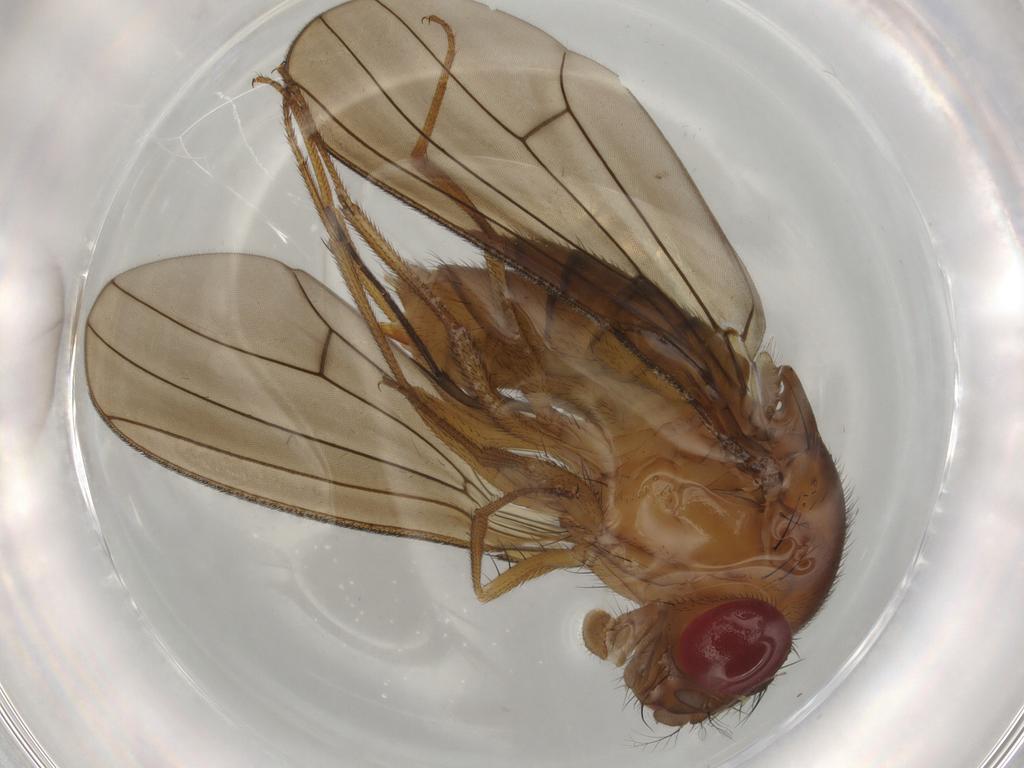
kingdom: Animalia
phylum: Arthropoda
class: Insecta
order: Diptera
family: Drosophilidae
